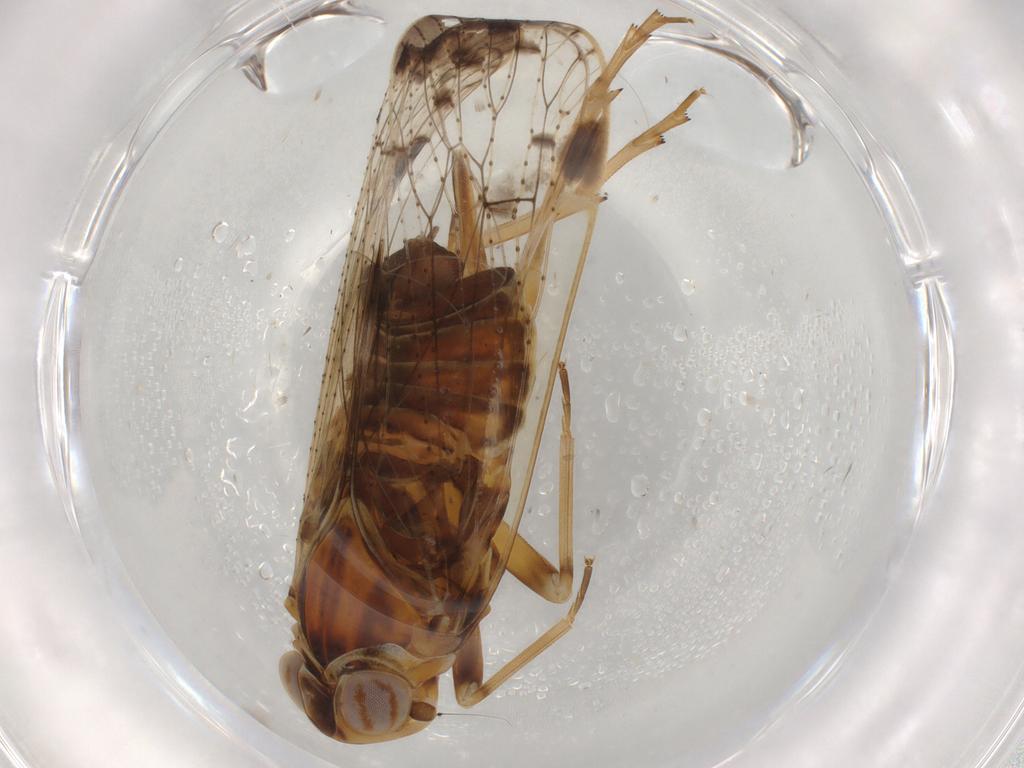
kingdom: Animalia
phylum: Arthropoda
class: Insecta
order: Hemiptera
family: Cixiidae
